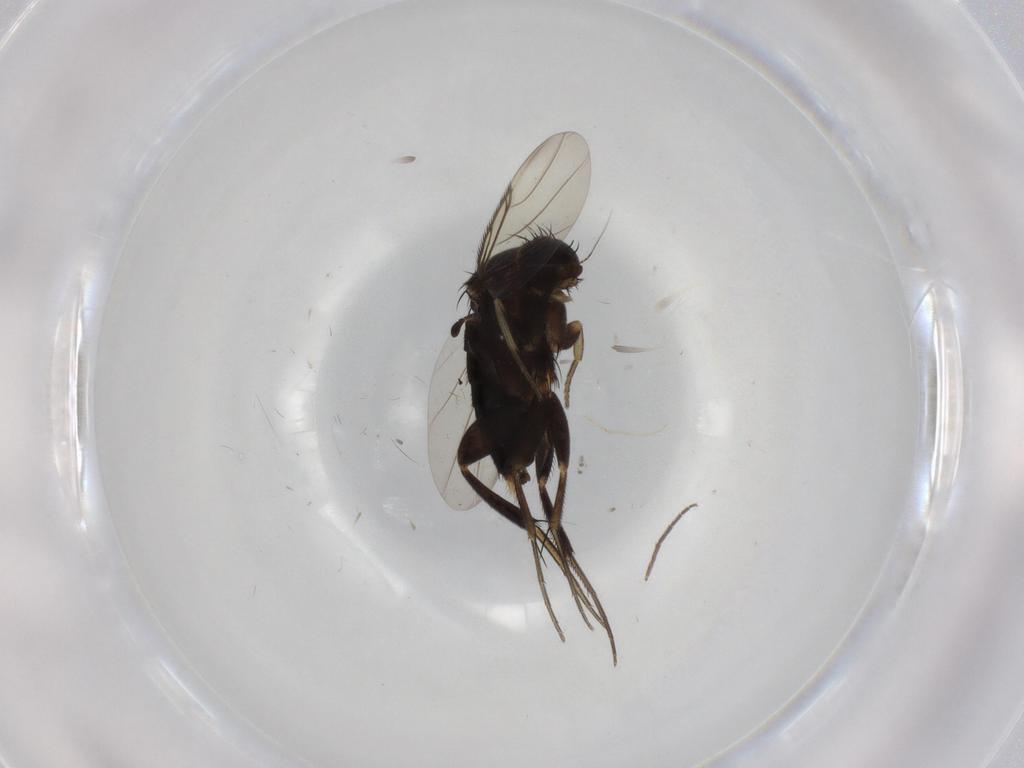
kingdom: Animalia
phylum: Arthropoda
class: Insecta
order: Diptera
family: Phoridae
